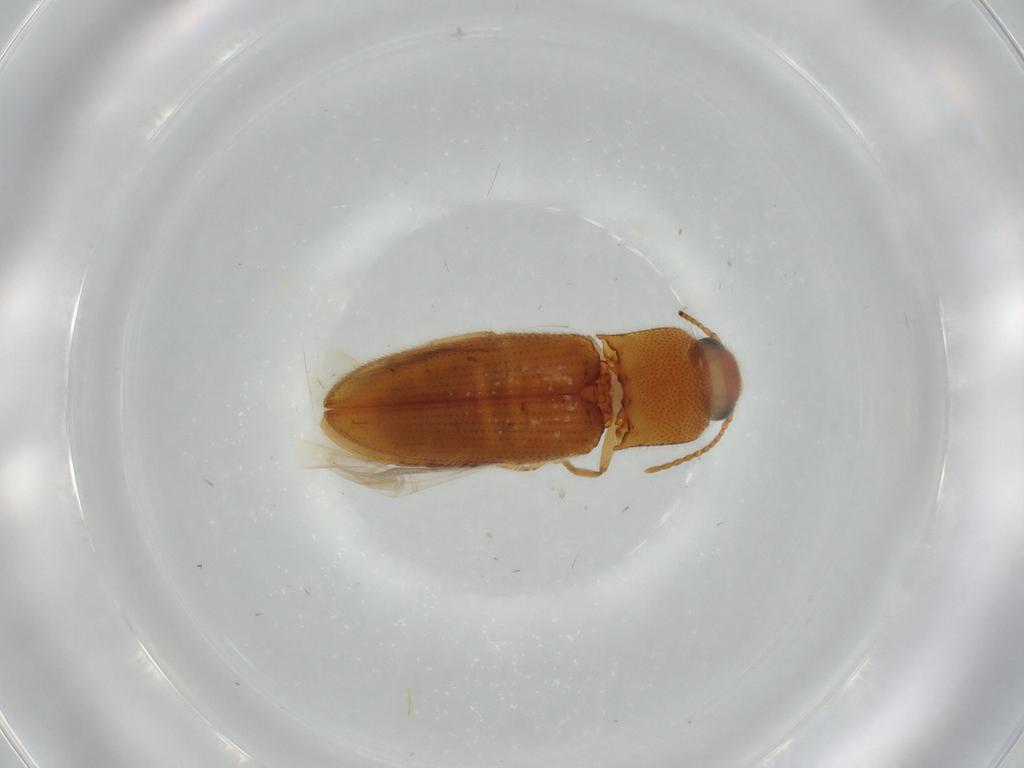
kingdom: Animalia
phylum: Arthropoda
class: Insecta
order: Coleoptera
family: Elateridae
